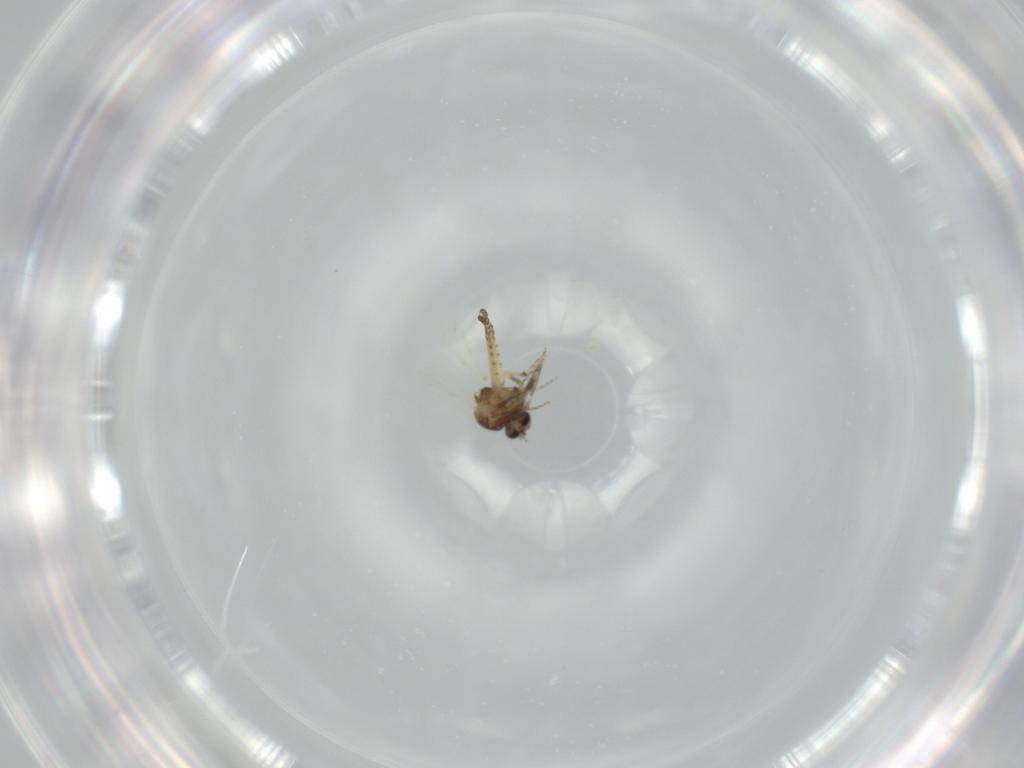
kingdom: Animalia
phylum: Arthropoda
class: Insecta
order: Diptera
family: Ceratopogonidae
